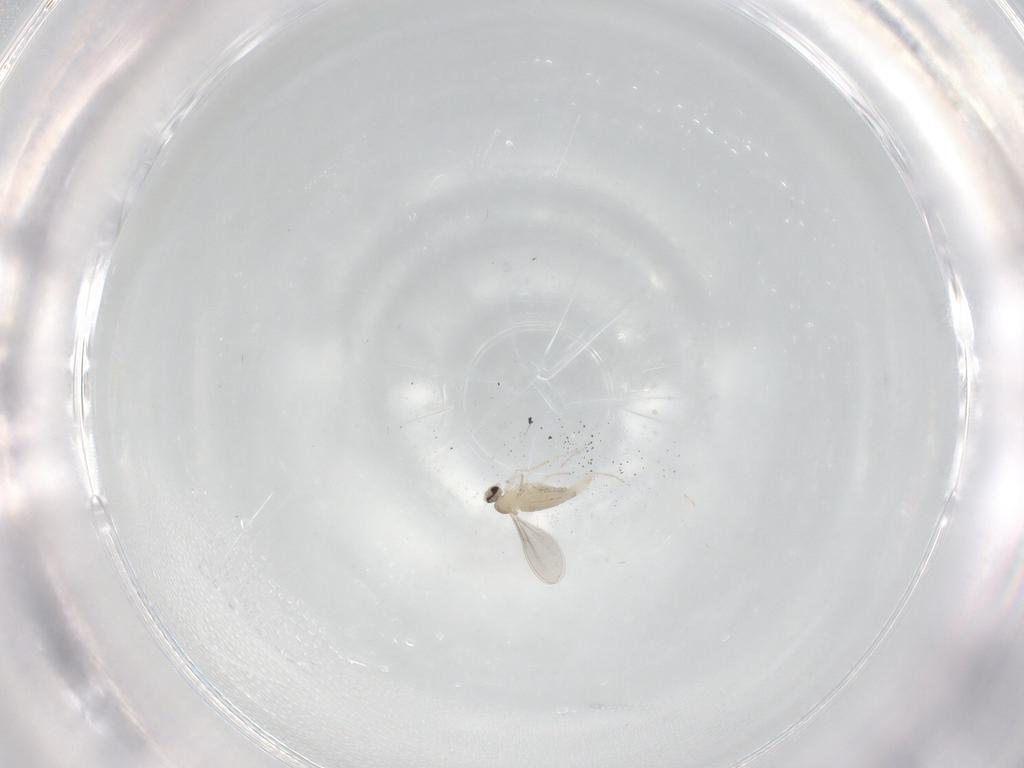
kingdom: Animalia
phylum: Arthropoda
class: Insecta
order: Diptera
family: Cecidomyiidae
